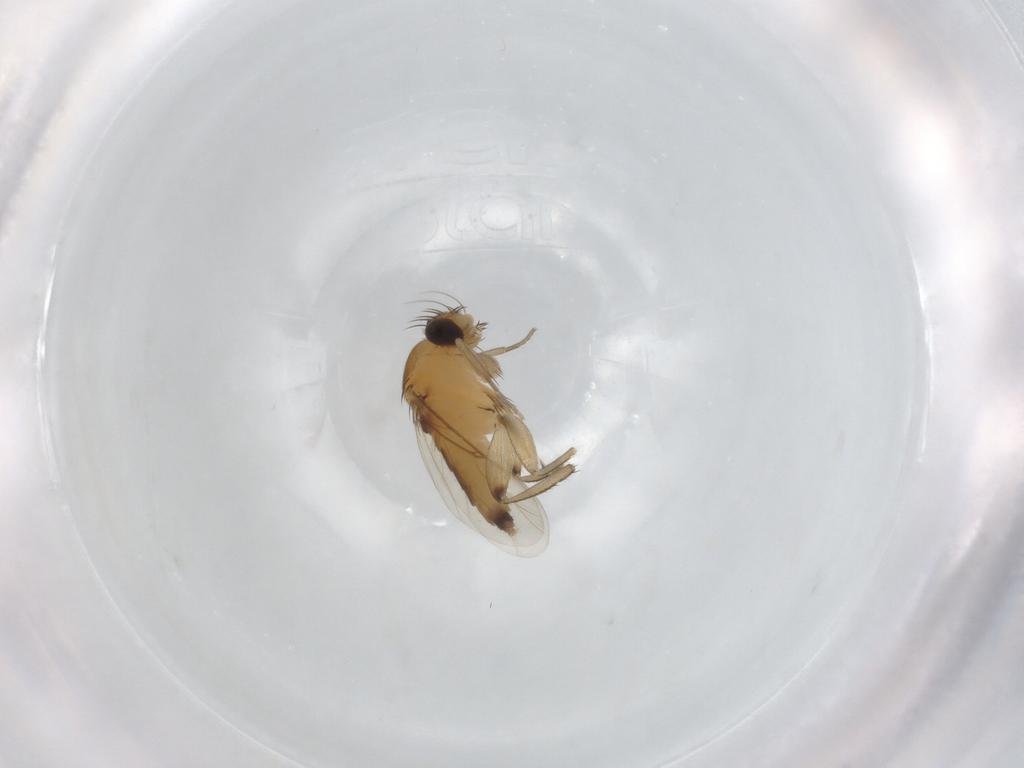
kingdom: Animalia
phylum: Arthropoda
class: Insecta
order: Diptera
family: Phoridae
